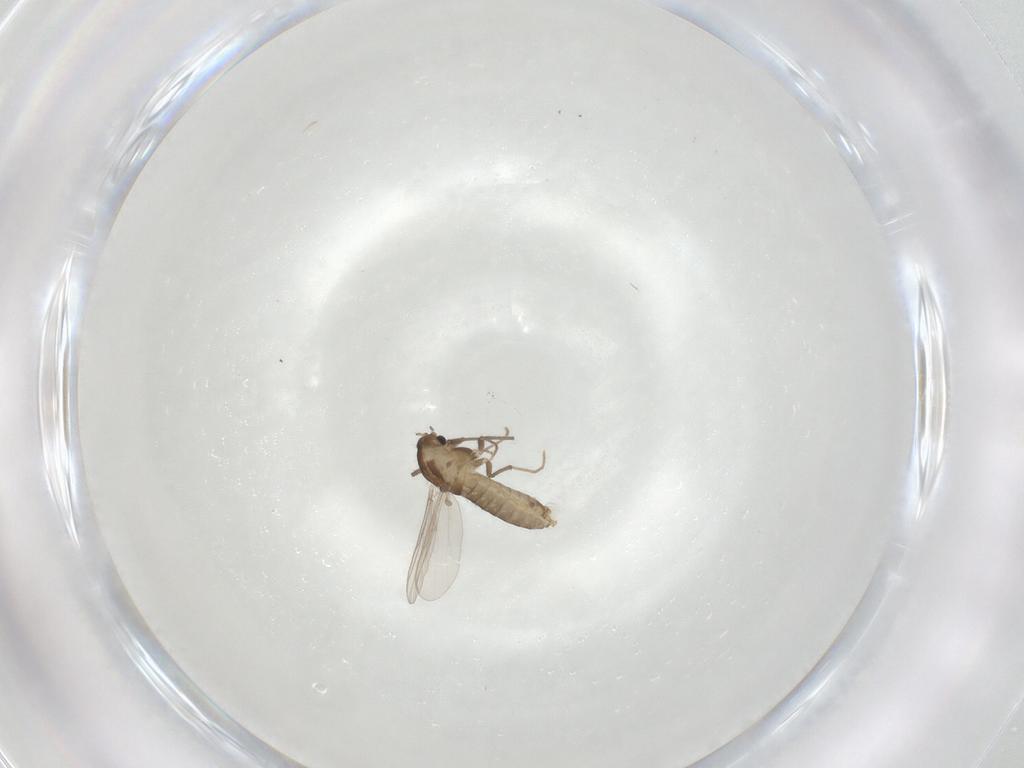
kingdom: Animalia
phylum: Arthropoda
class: Insecta
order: Diptera
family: Chironomidae
